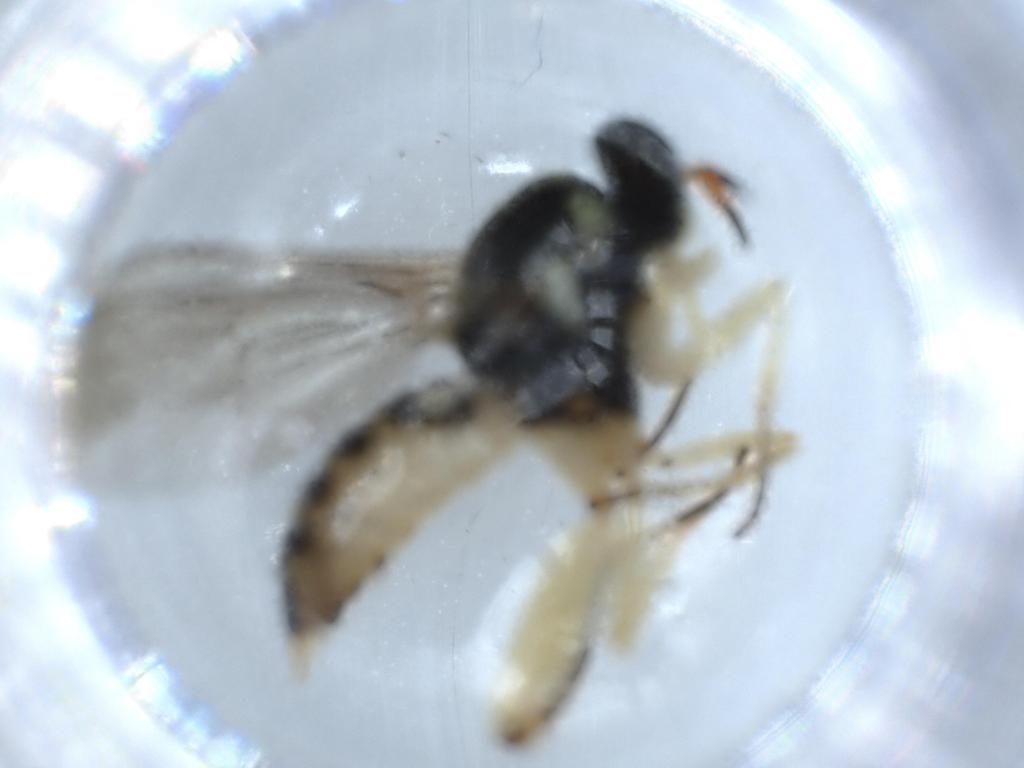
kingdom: Animalia
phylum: Arthropoda
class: Insecta
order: Diptera
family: Xylomyidae
